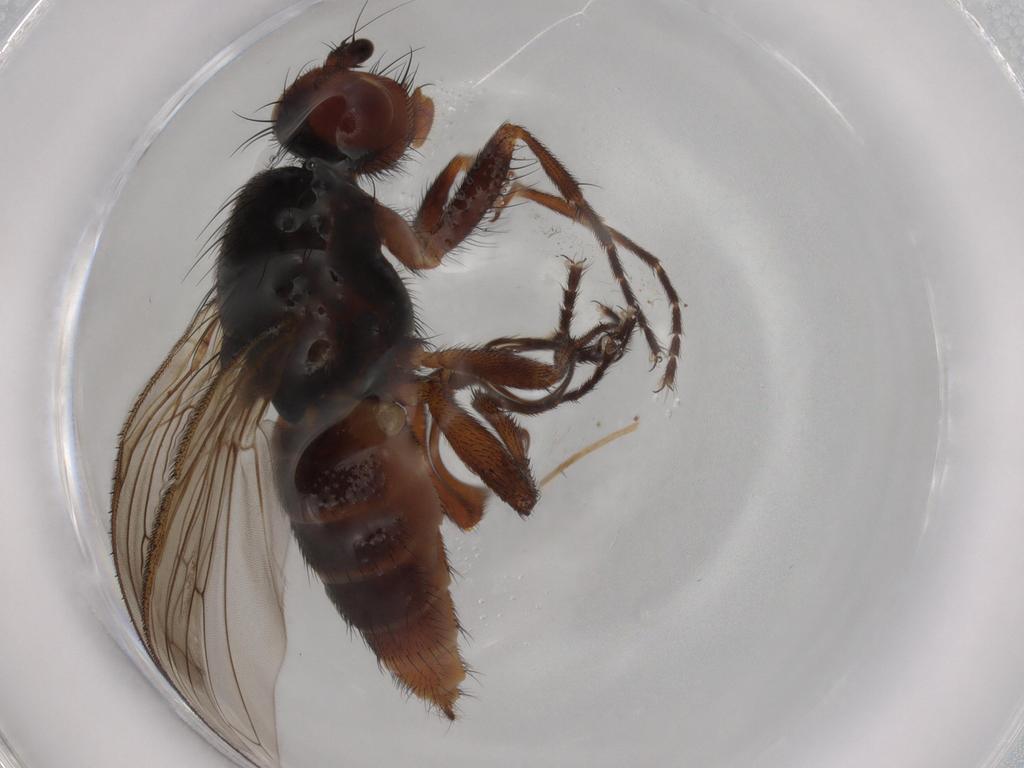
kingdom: Animalia
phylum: Arthropoda
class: Insecta
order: Diptera
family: Heleomyzidae
